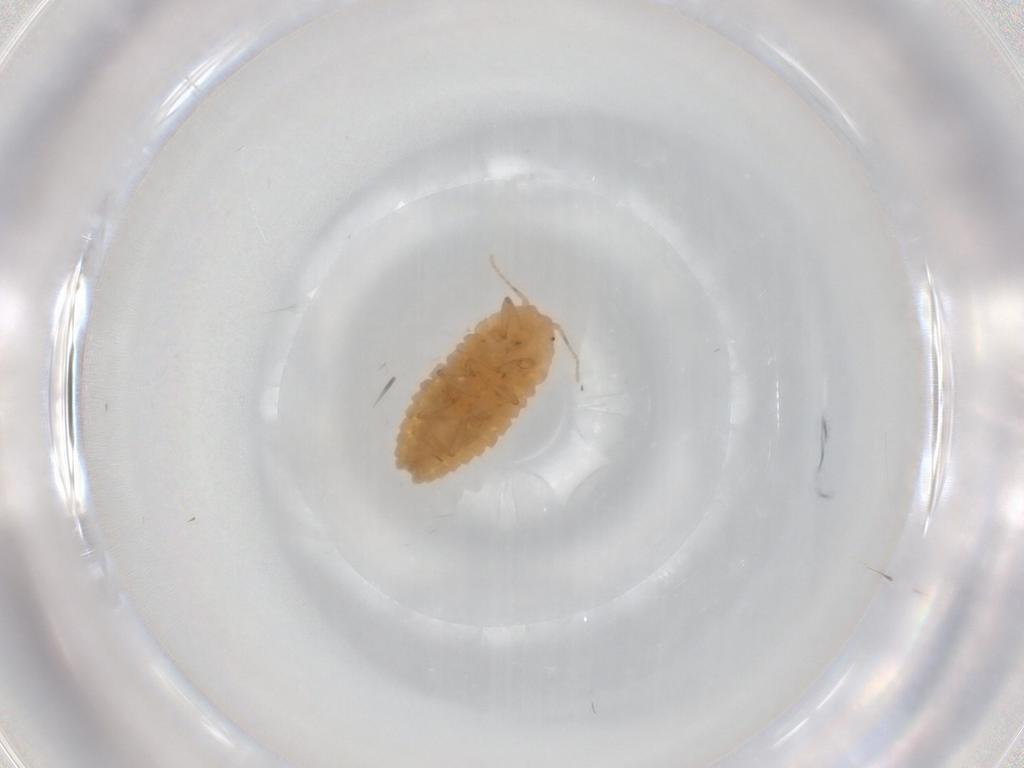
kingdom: Animalia
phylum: Arthropoda
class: Insecta
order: Hemiptera
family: Pseudococcidae
